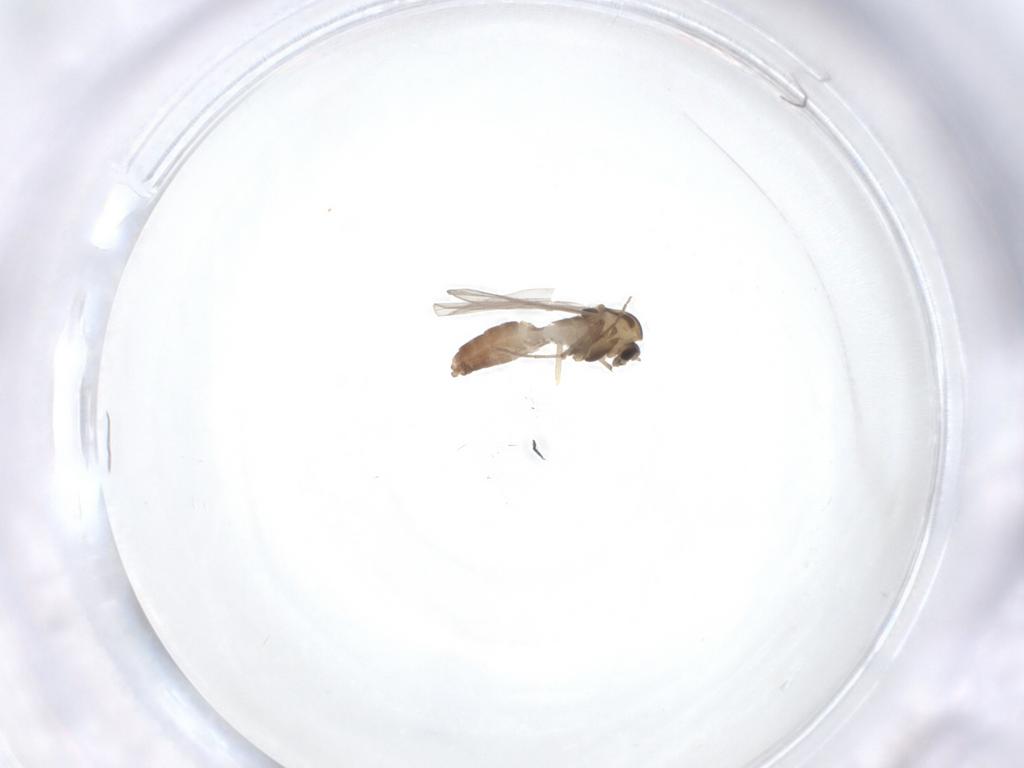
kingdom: Animalia
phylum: Arthropoda
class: Insecta
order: Diptera
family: Chironomidae
